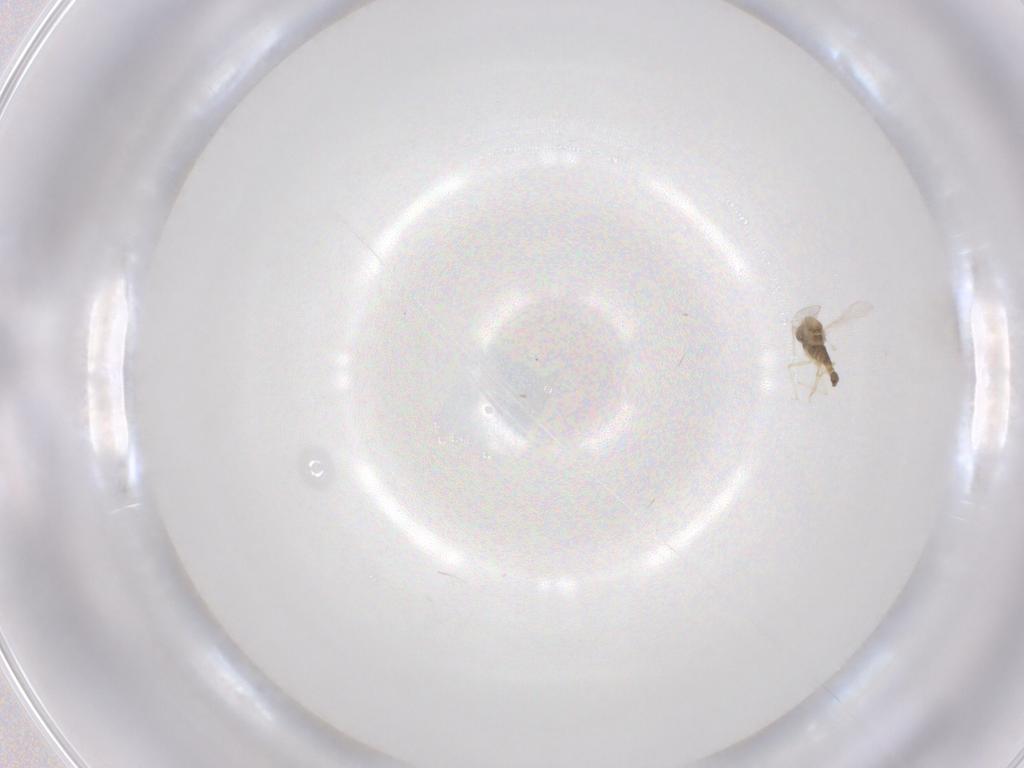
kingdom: Animalia
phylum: Arthropoda
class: Insecta
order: Diptera
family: Chironomidae
